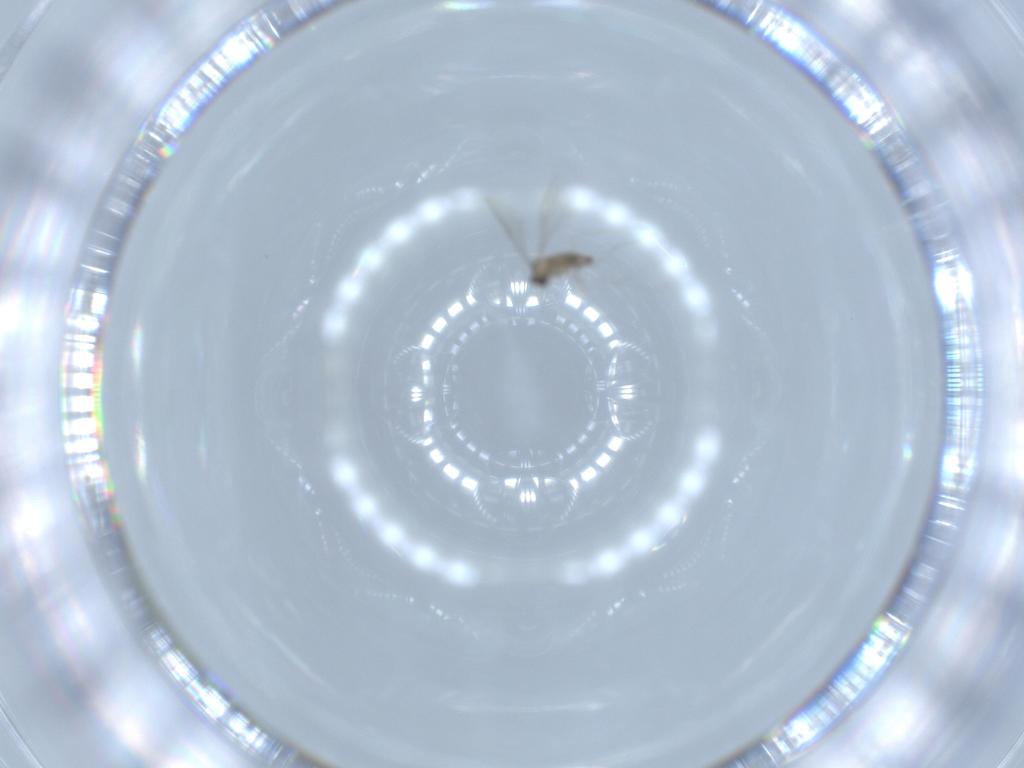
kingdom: Animalia
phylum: Arthropoda
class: Insecta
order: Diptera
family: Cecidomyiidae
